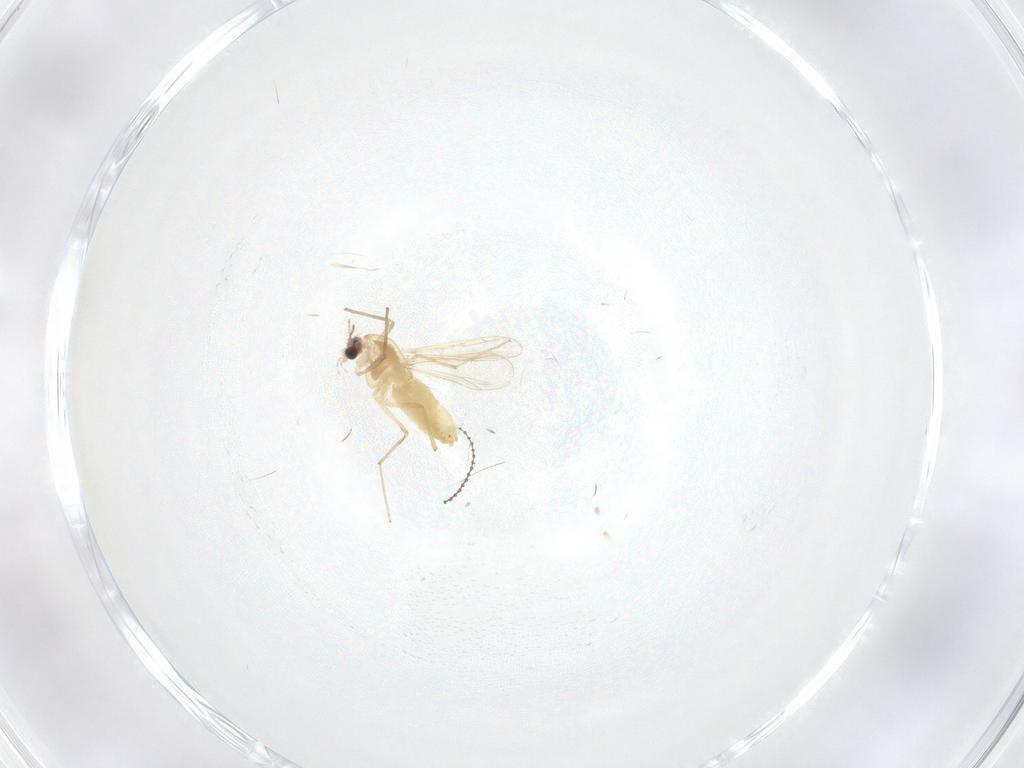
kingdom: Animalia
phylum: Arthropoda
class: Insecta
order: Diptera
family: Chironomidae
